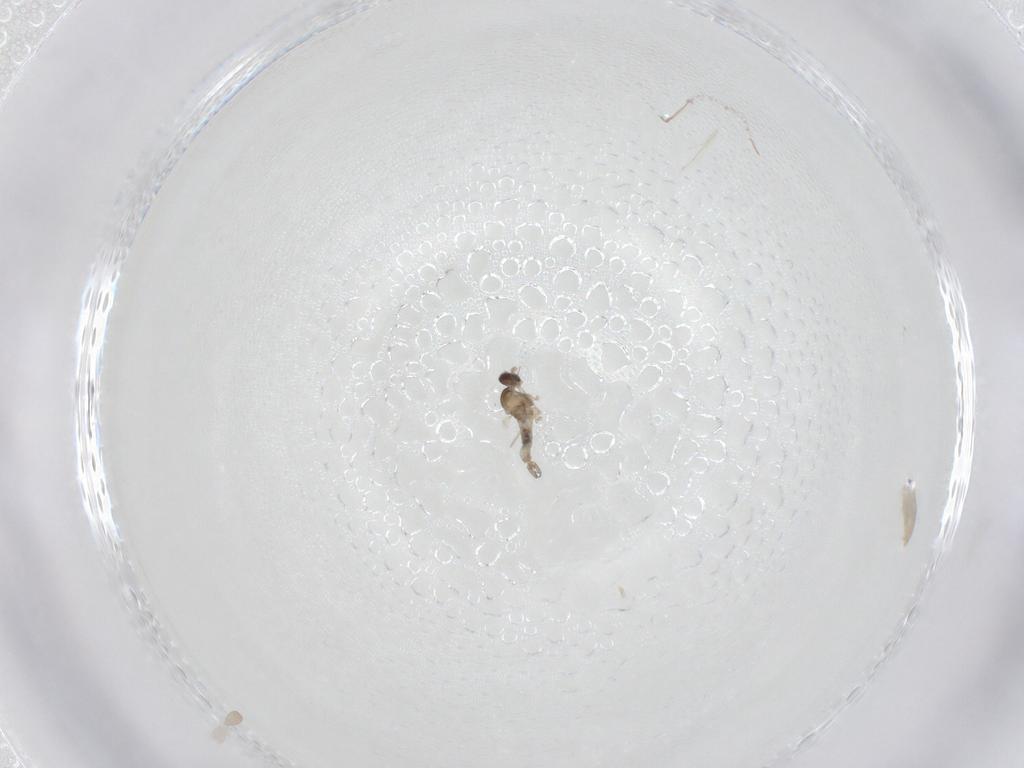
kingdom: Animalia
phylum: Arthropoda
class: Insecta
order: Diptera
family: Cecidomyiidae
